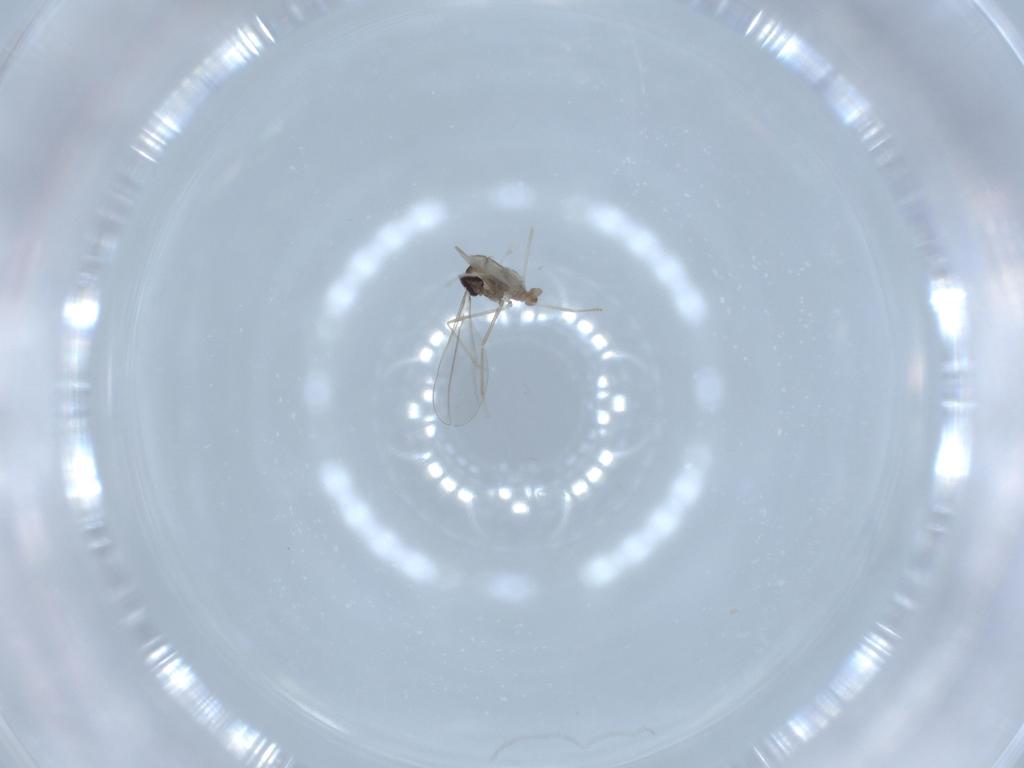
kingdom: Animalia
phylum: Arthropoda
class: Insecta
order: Diptera
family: Cecidomyiidae
